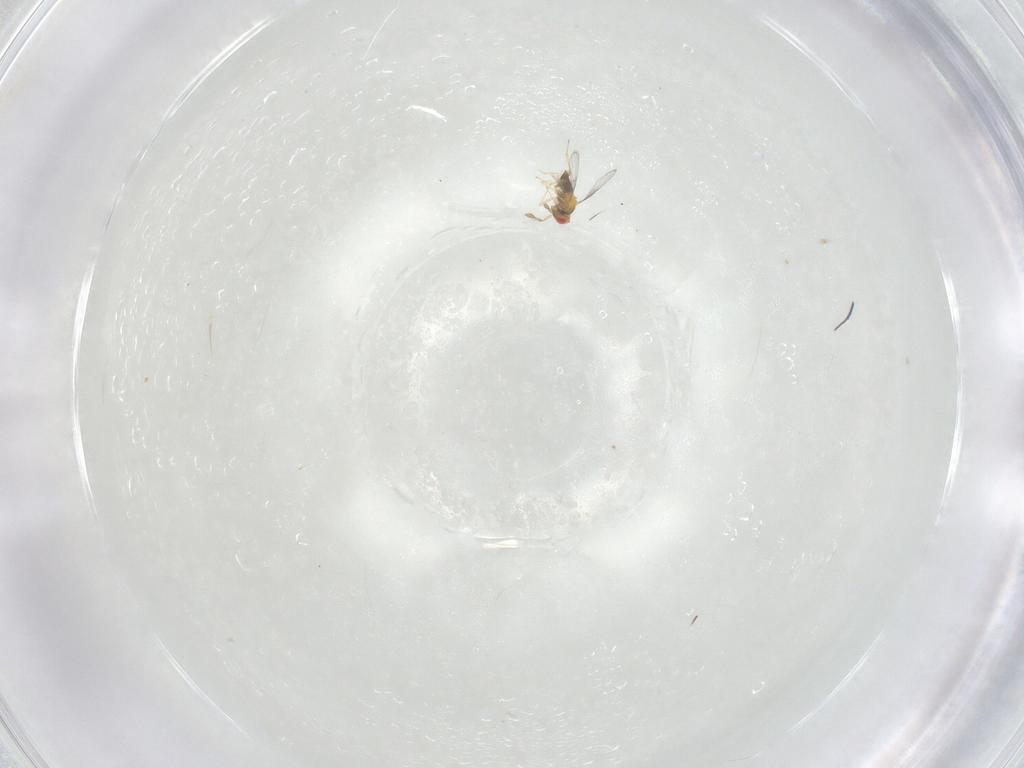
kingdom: Animalia
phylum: Arthropoda
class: Insecta
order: Hymenoptera
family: Trichogrammatidae
